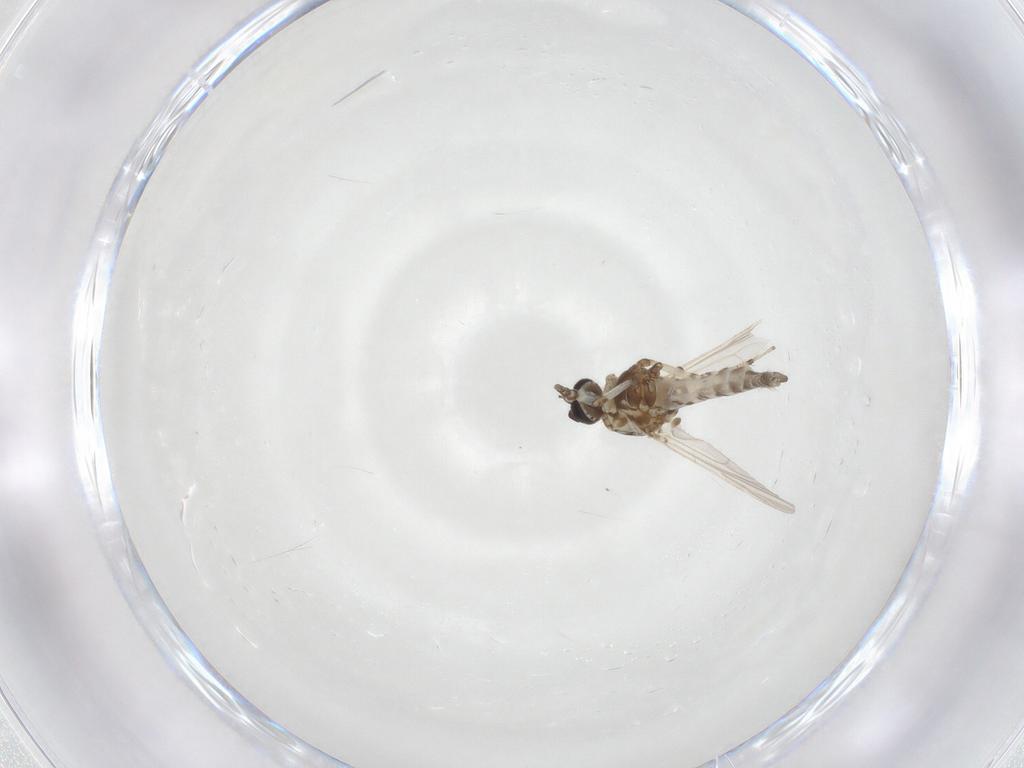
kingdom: Animalia
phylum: Arthropoda
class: Insecta
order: Diptera
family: Ceratopogonidae
